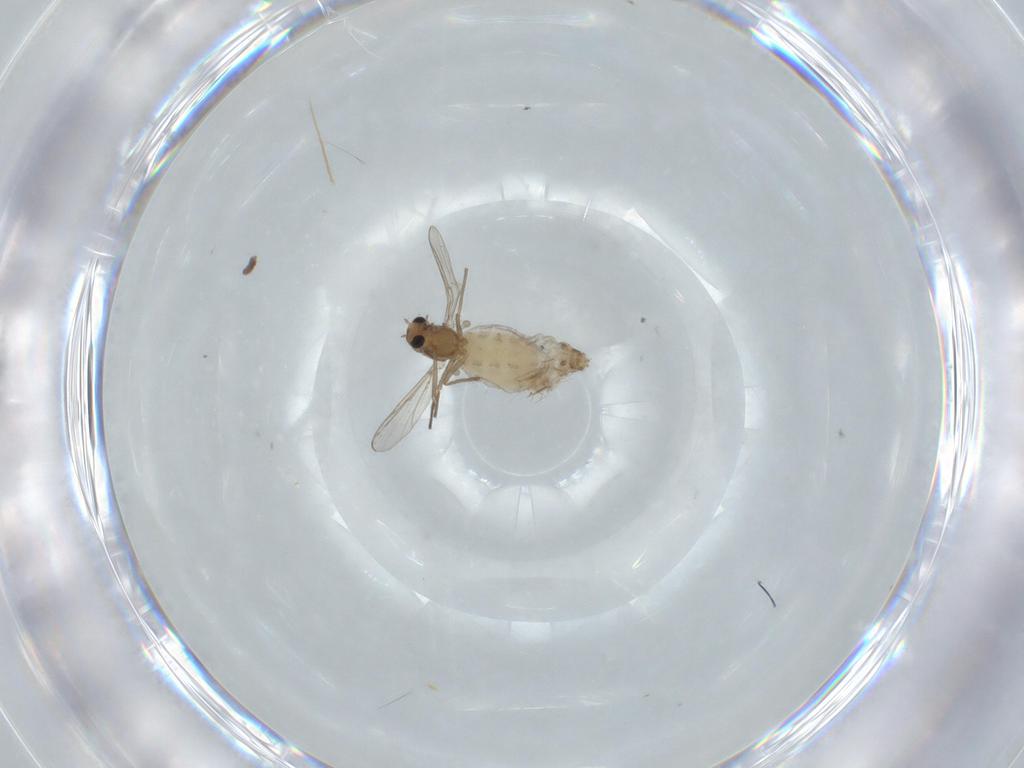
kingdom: Animalia
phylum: Arthropoda
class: Insecta
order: Diptera
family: Chironomidae
